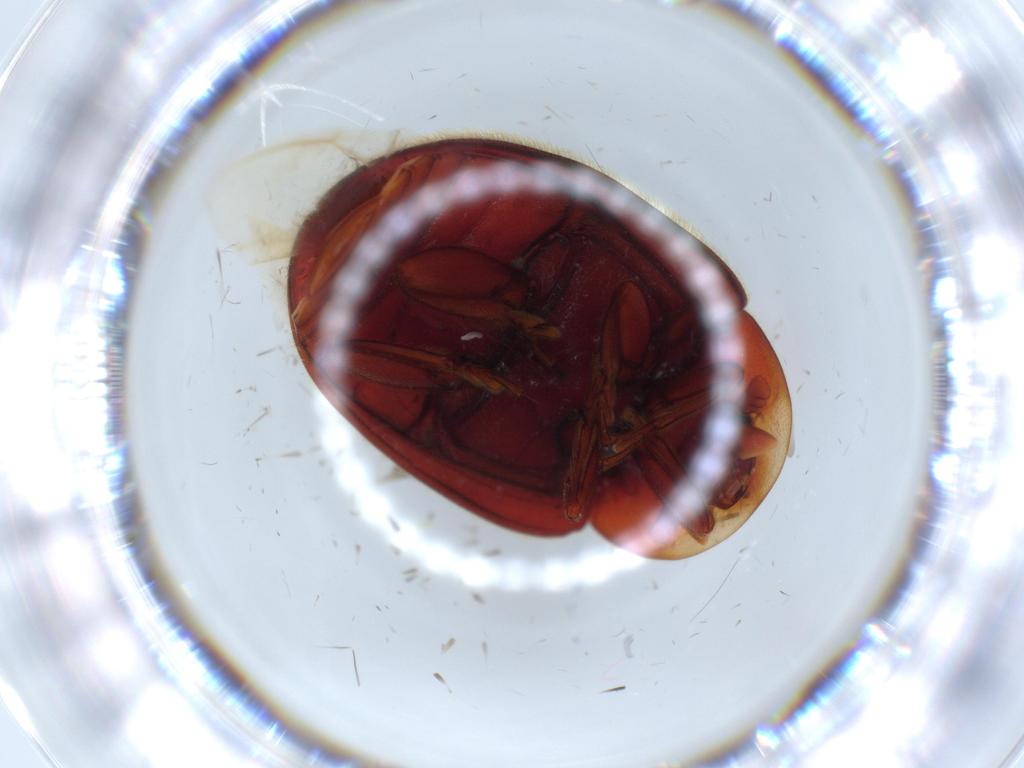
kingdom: Animalia
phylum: Arthropoda
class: Insecta
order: Coleoptera
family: Coccinellidae
